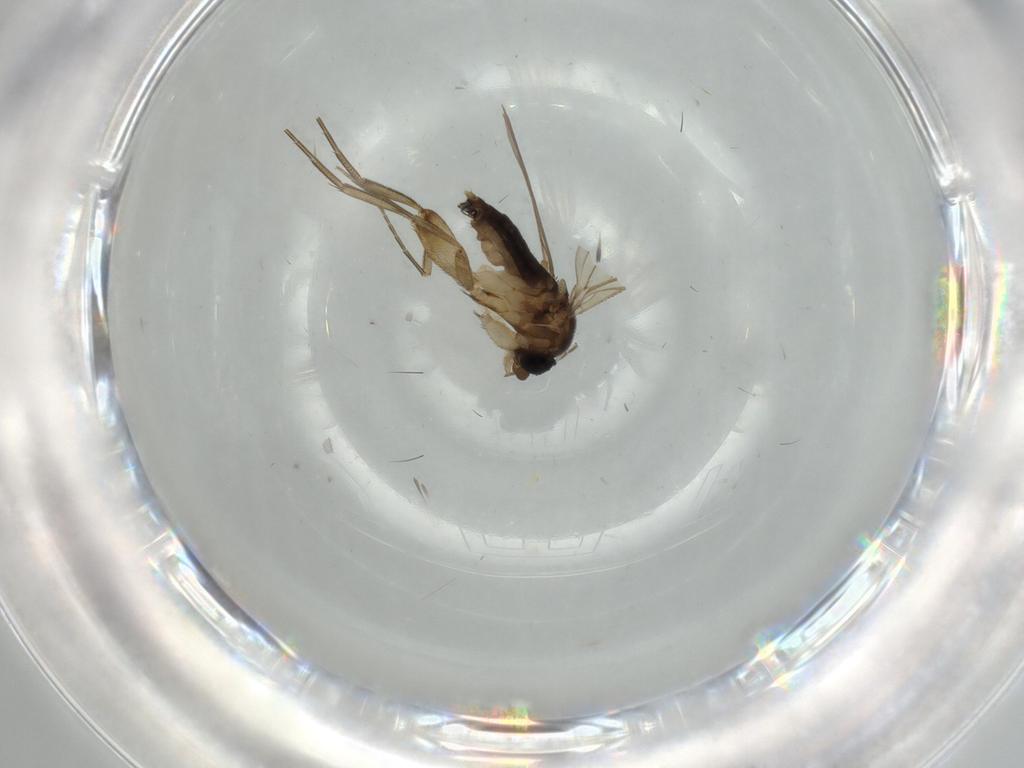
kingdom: Animalia
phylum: Arthropoda
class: Insecta
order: Diptera
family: Phoridae
